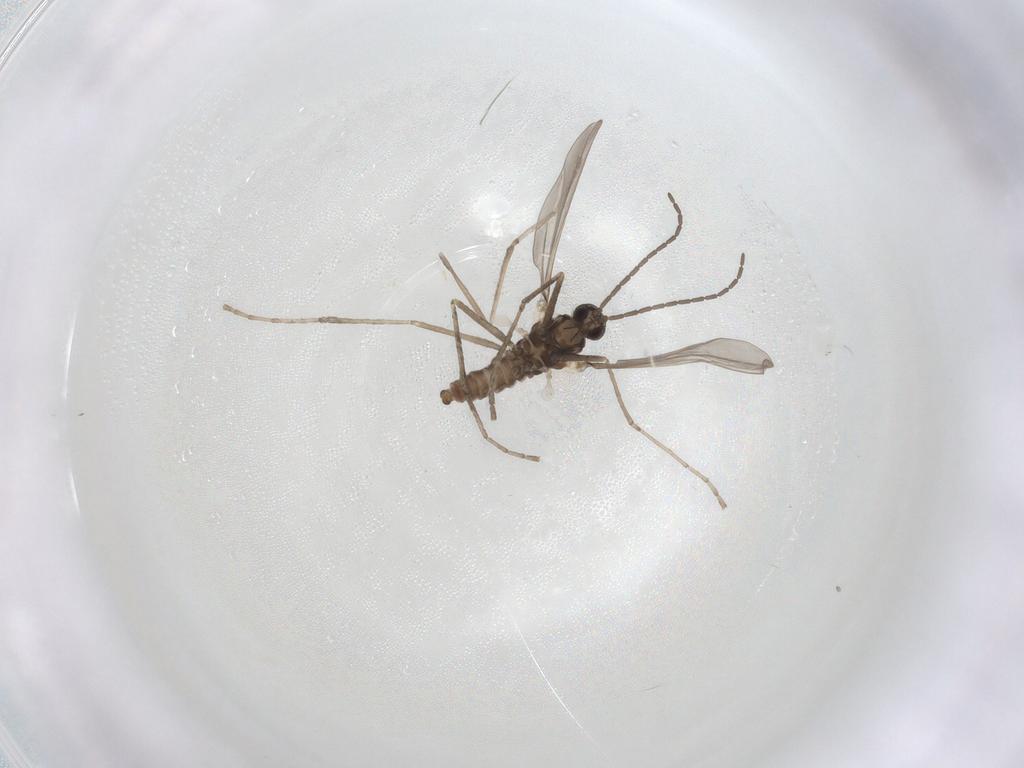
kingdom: Animalia
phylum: Arthropoda
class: Insecta
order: Diptera
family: Cecidomyiidae
